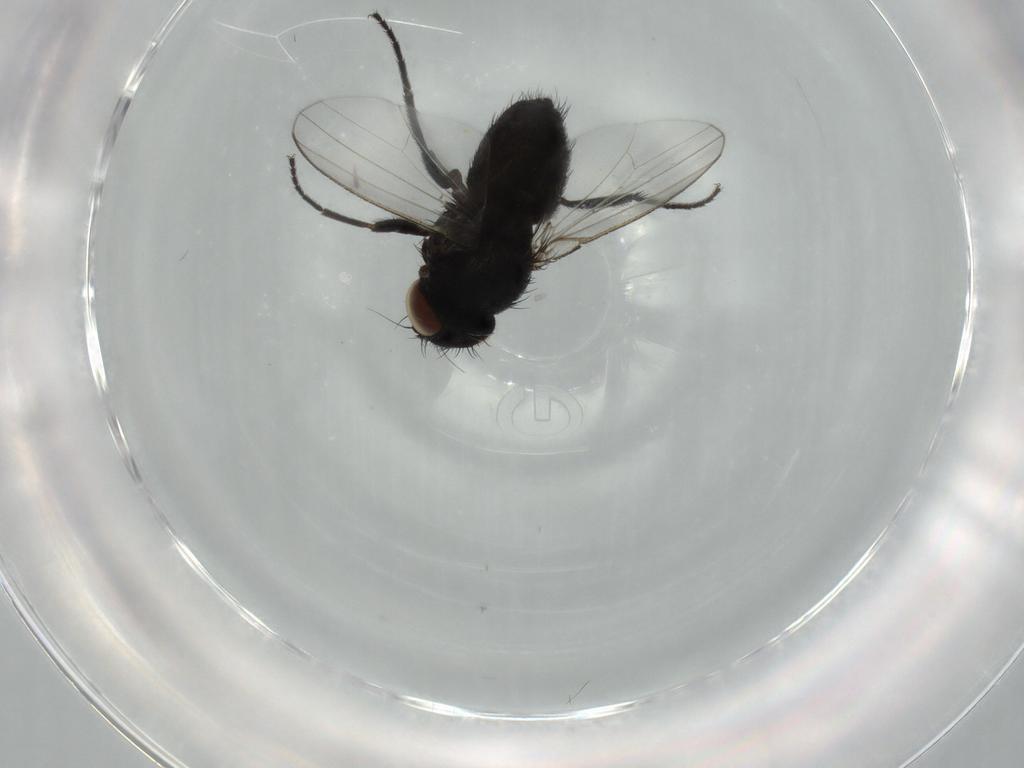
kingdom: Animalia
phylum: Arthropoda
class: Insecta
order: Diptera
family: Milichiidae
